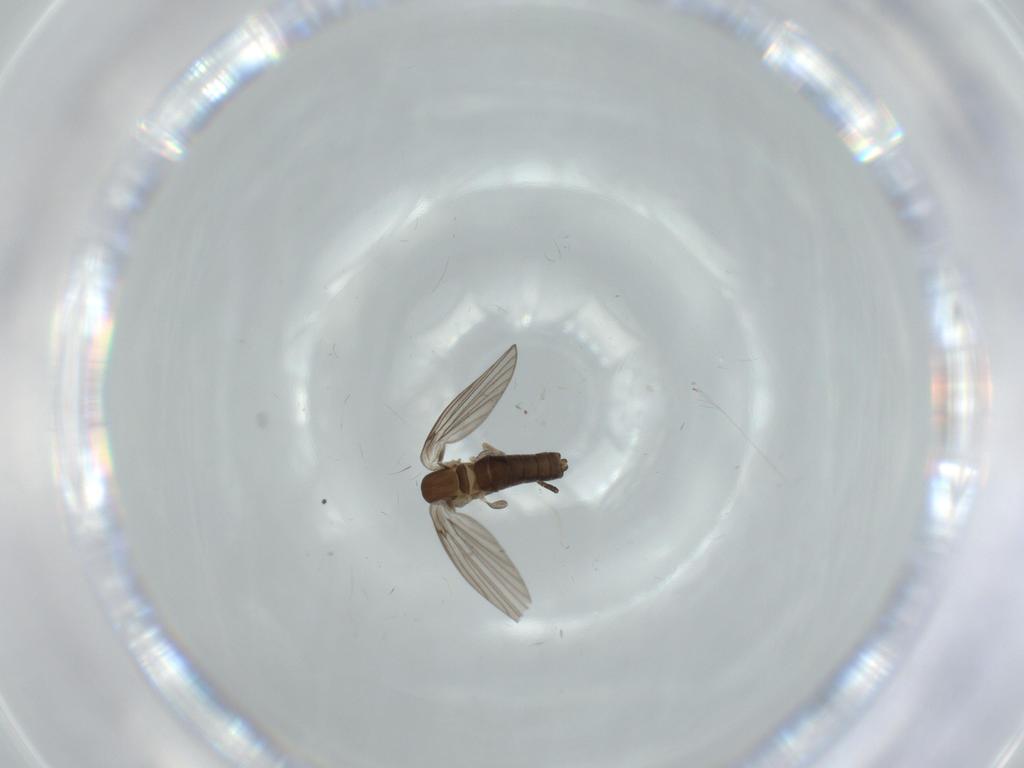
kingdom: Animalia
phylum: Arthropoda
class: Insecta
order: Diptera
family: Psychodidae
